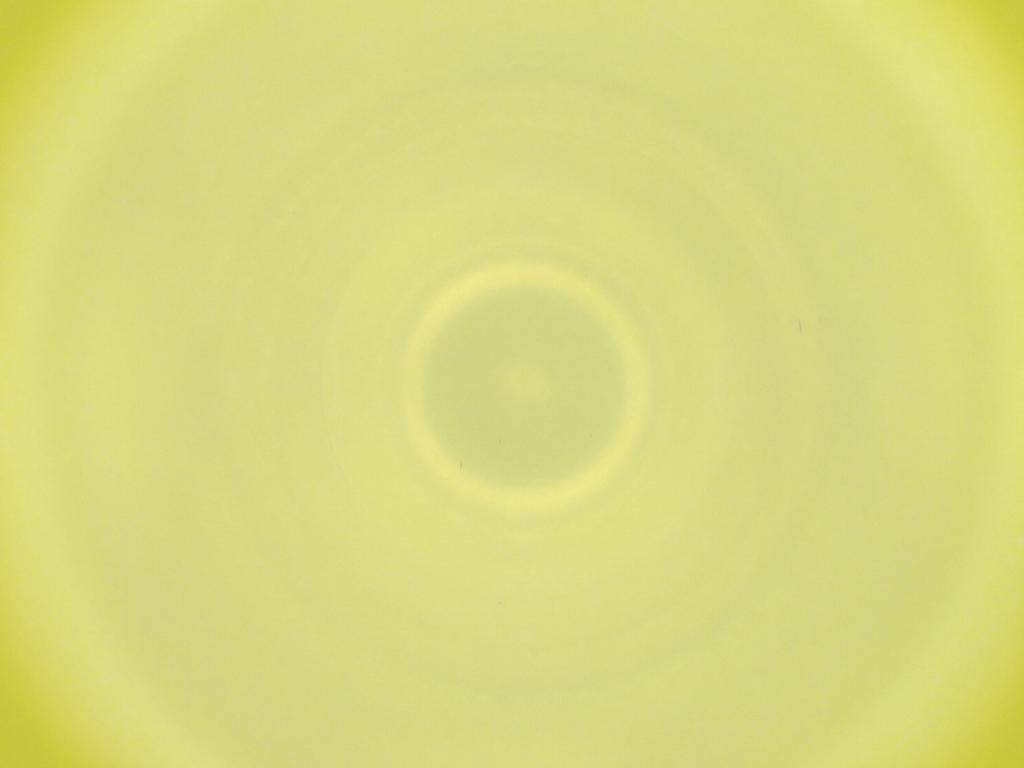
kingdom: Animalia
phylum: Arthropoda
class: Insecta
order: Diptera
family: Cecidomyiidae
